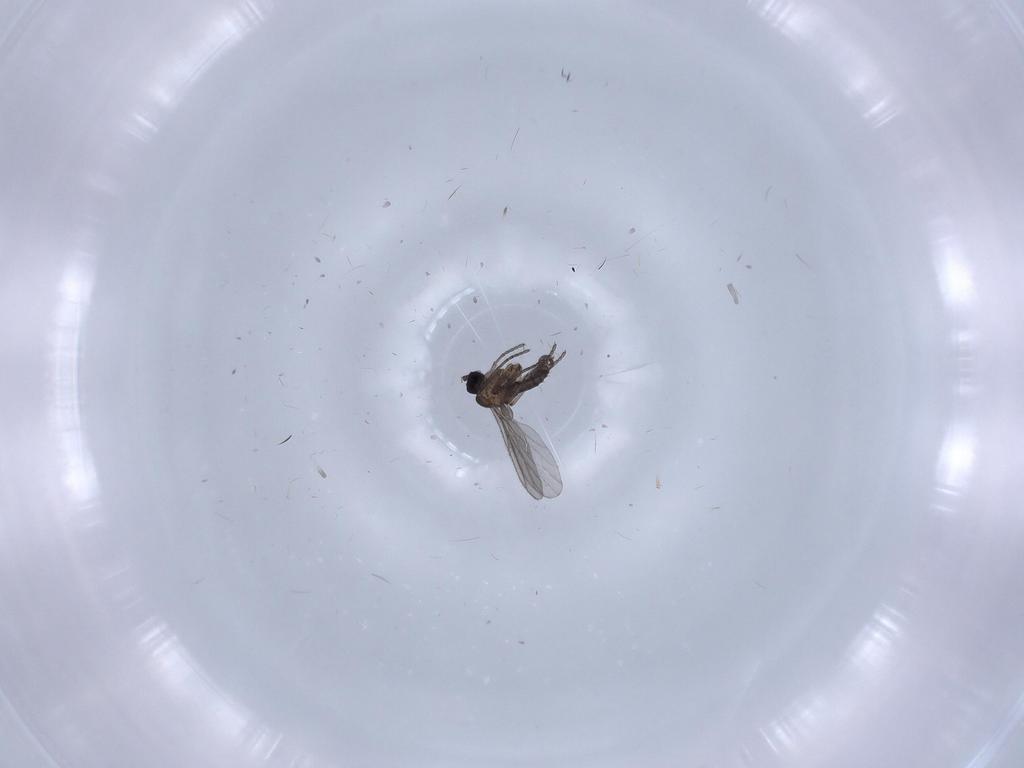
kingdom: Animalia
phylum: Arthropoda
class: Insecta
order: Diptera
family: Chironomidae
